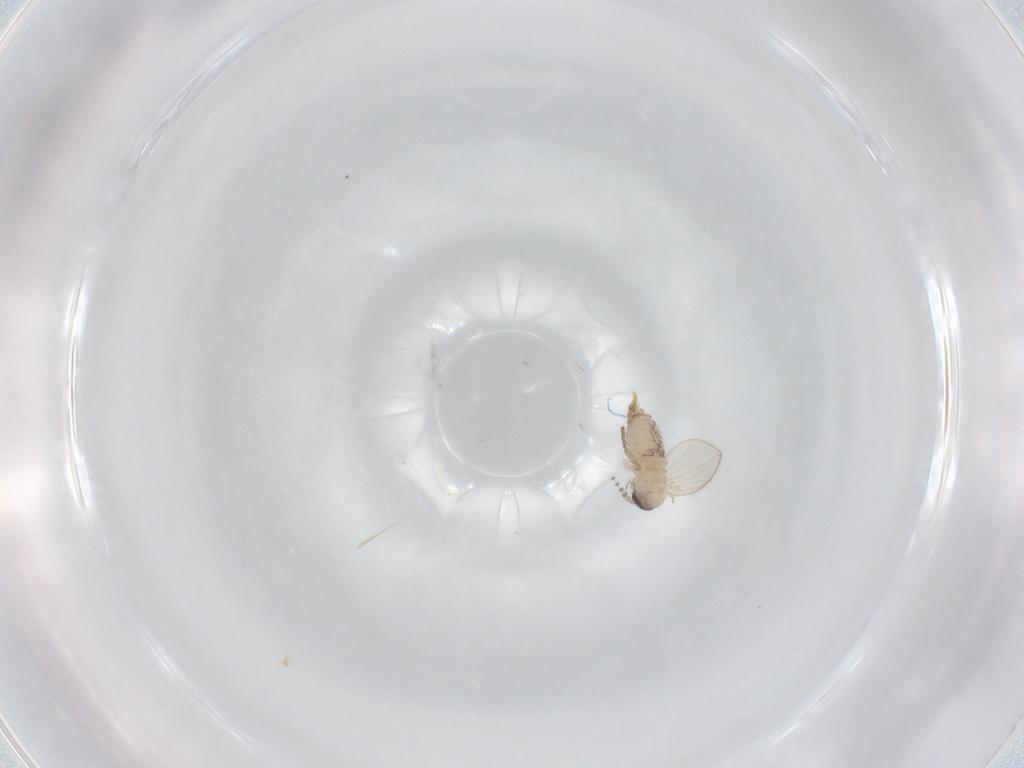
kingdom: Animalia
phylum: Arthropoda
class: Insecta
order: Diptera
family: Psychodidae
